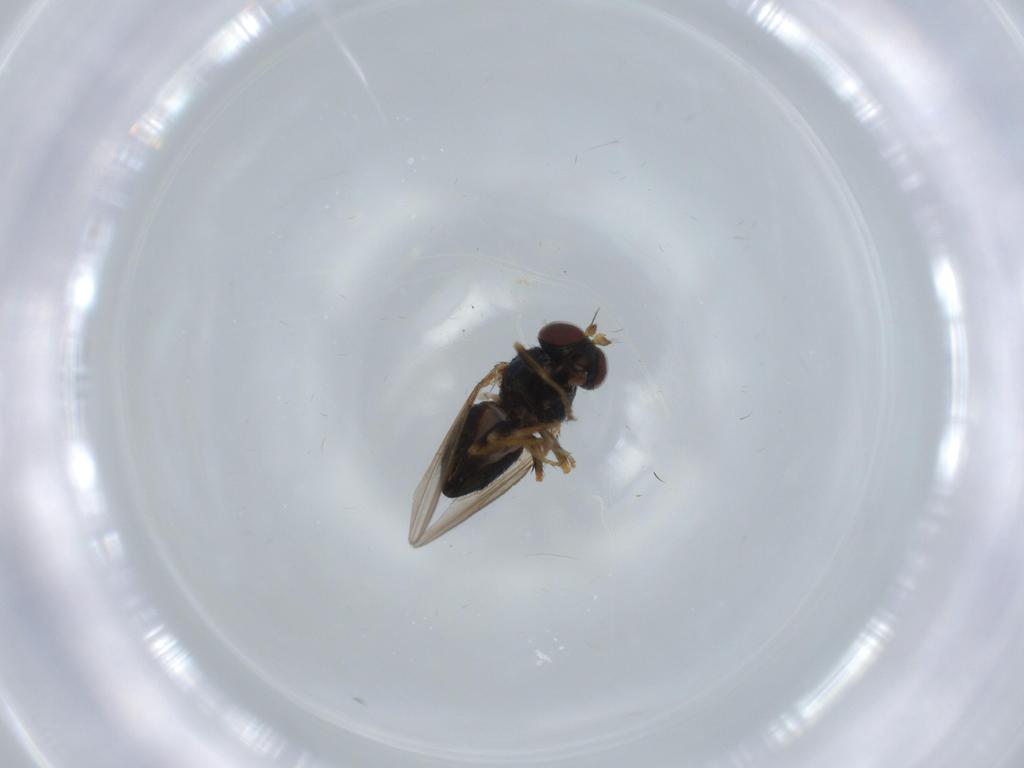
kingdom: Animalia
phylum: Arthropoda
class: Insecta
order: Diptera
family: Ephydridae
